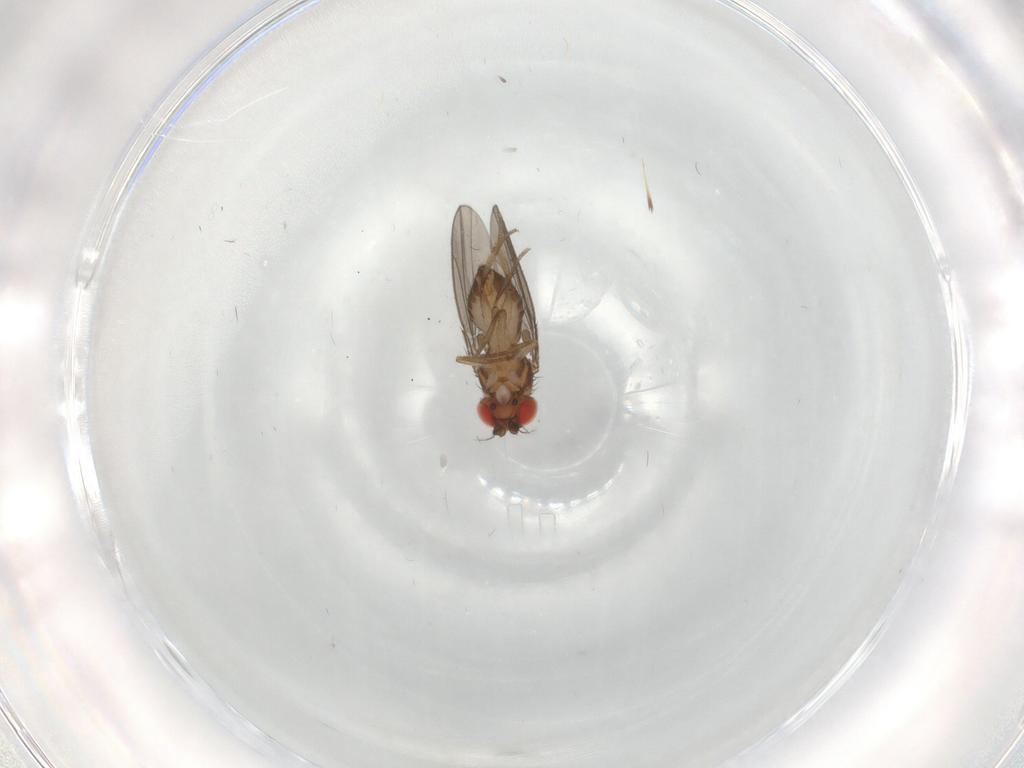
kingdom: Animalia
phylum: Arthropoda
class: Insecta
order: Diptera
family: Drosophilidae
